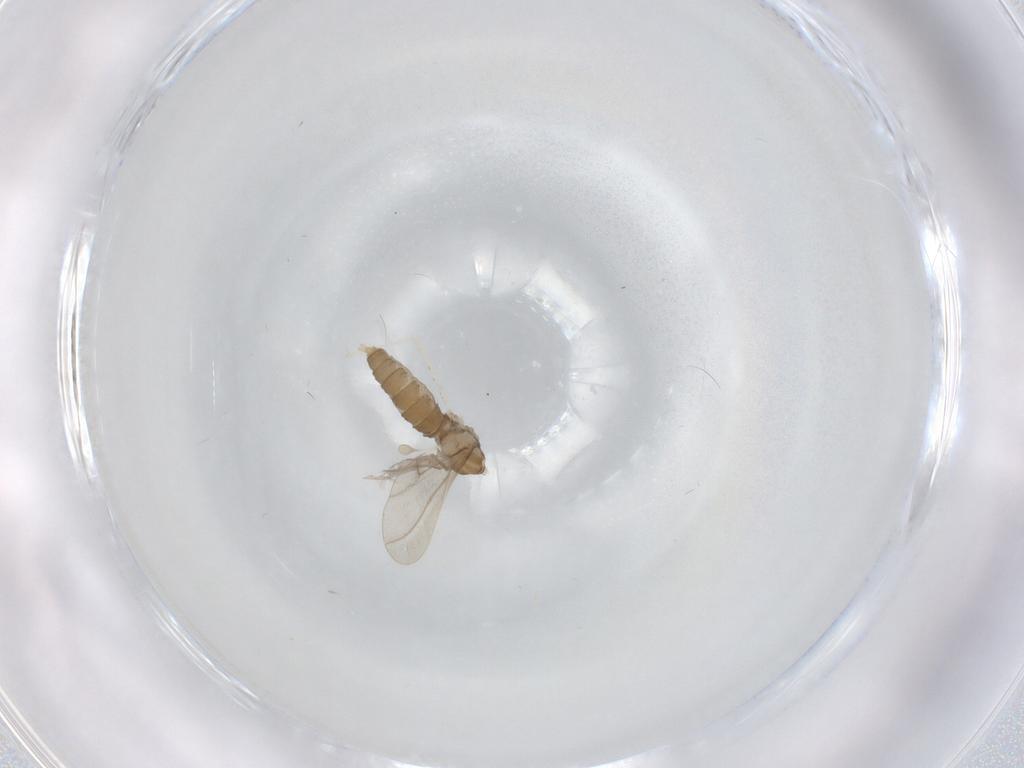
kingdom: Animalia
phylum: Arthropoda
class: Insecta
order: Diptera
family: Cecidomyiidae
